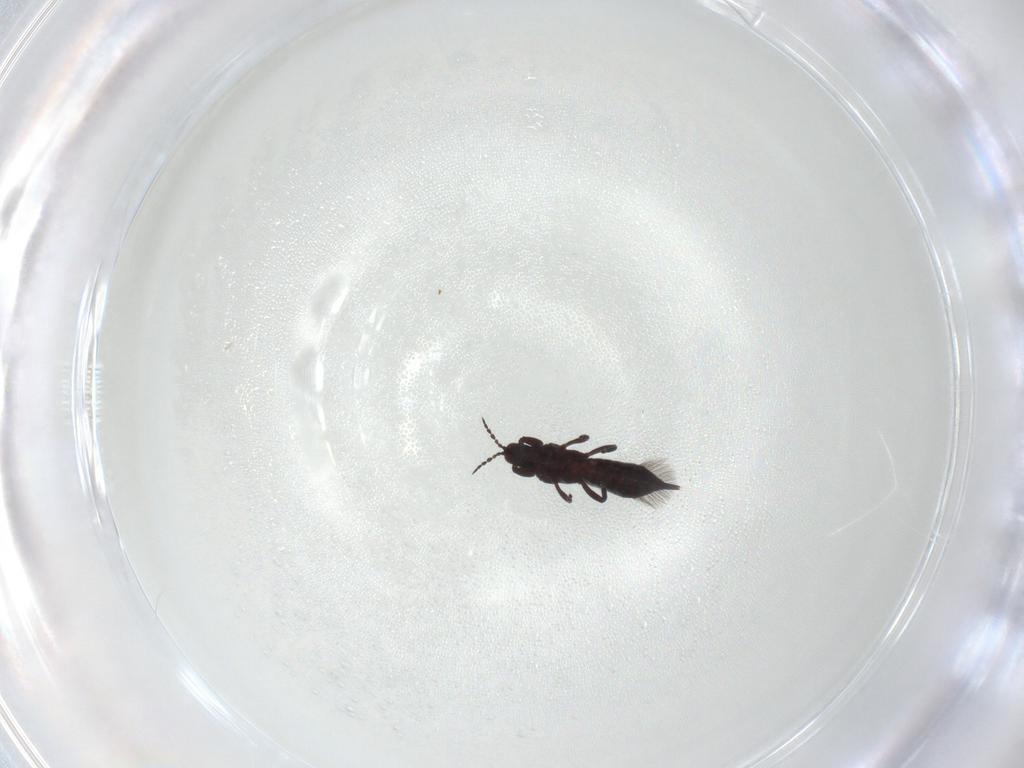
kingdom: Animalia
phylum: Arthropoda
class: Insecta
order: Thysanoptera
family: Phlaeothripidae
